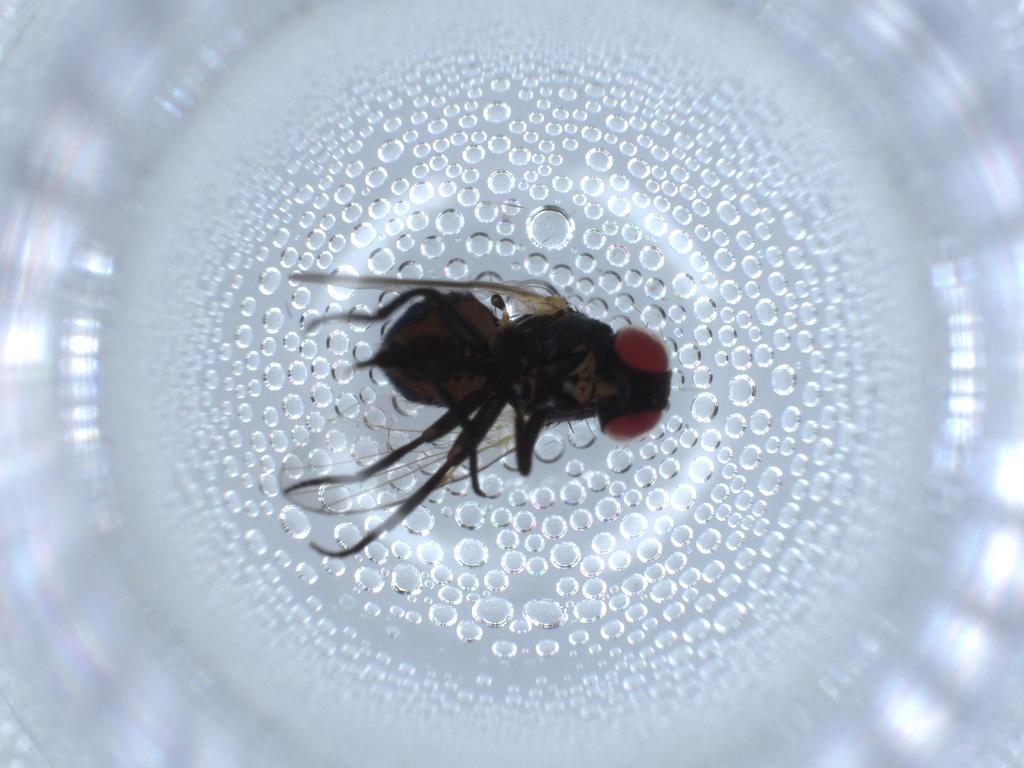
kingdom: Animalia
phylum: Arthropoda
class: Insecta
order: Diptera
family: Agromyzidae
